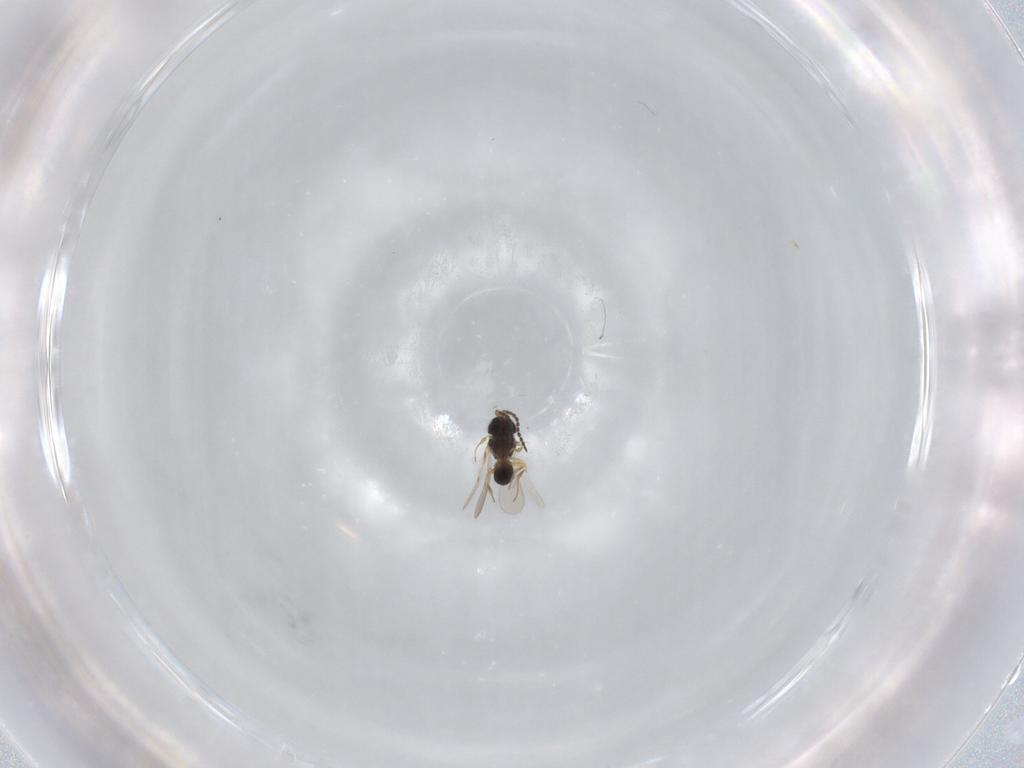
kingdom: Animalia
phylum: Arthropoda
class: Insecta
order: Hymenoptera
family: Scelionidae
